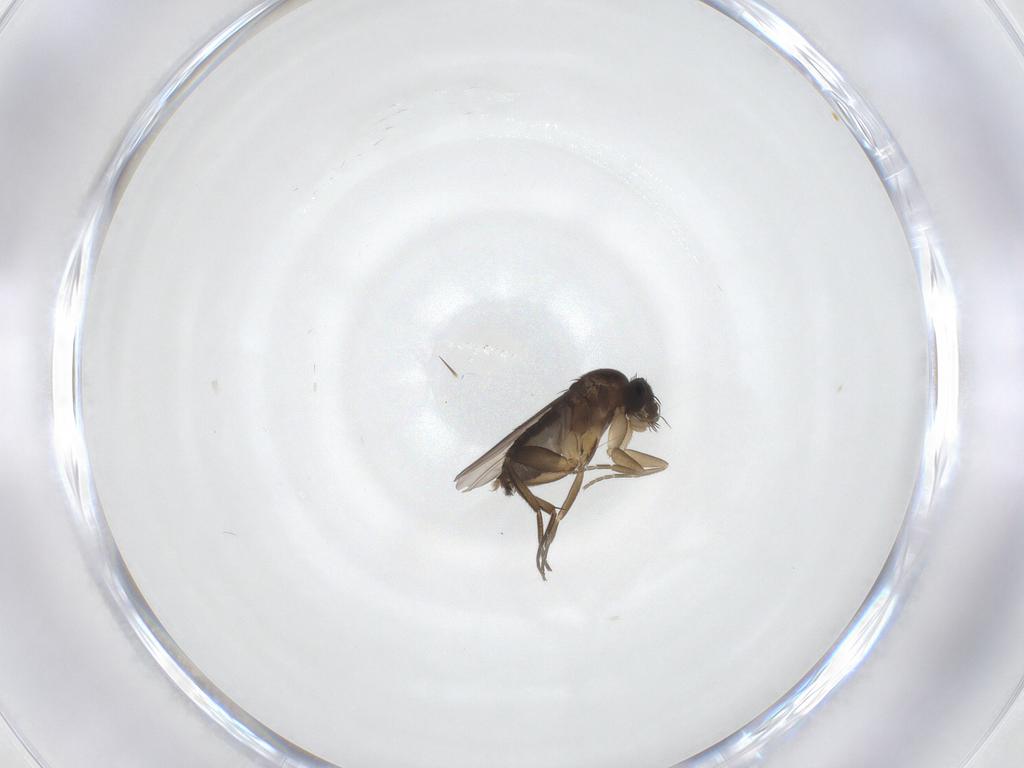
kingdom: Animalia
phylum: Arthropoda
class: Insecta
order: Diptera
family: Phoridae
